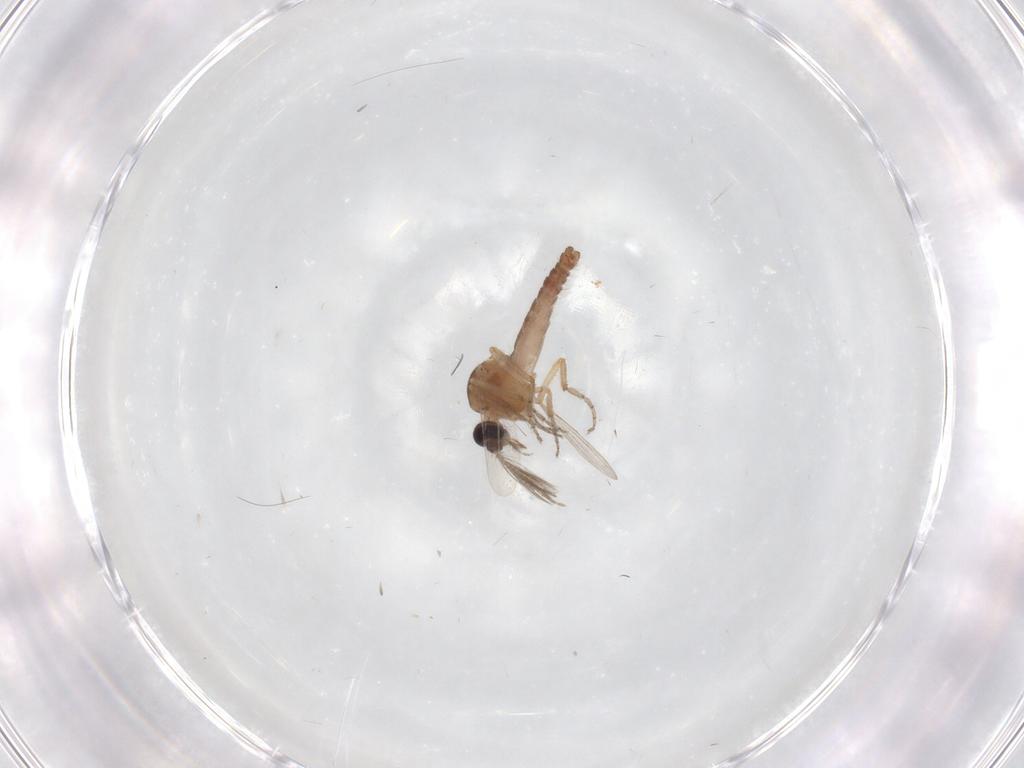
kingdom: Animalia
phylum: Arthropoda
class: Insecta
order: Diptera
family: Ceratopogonidae
